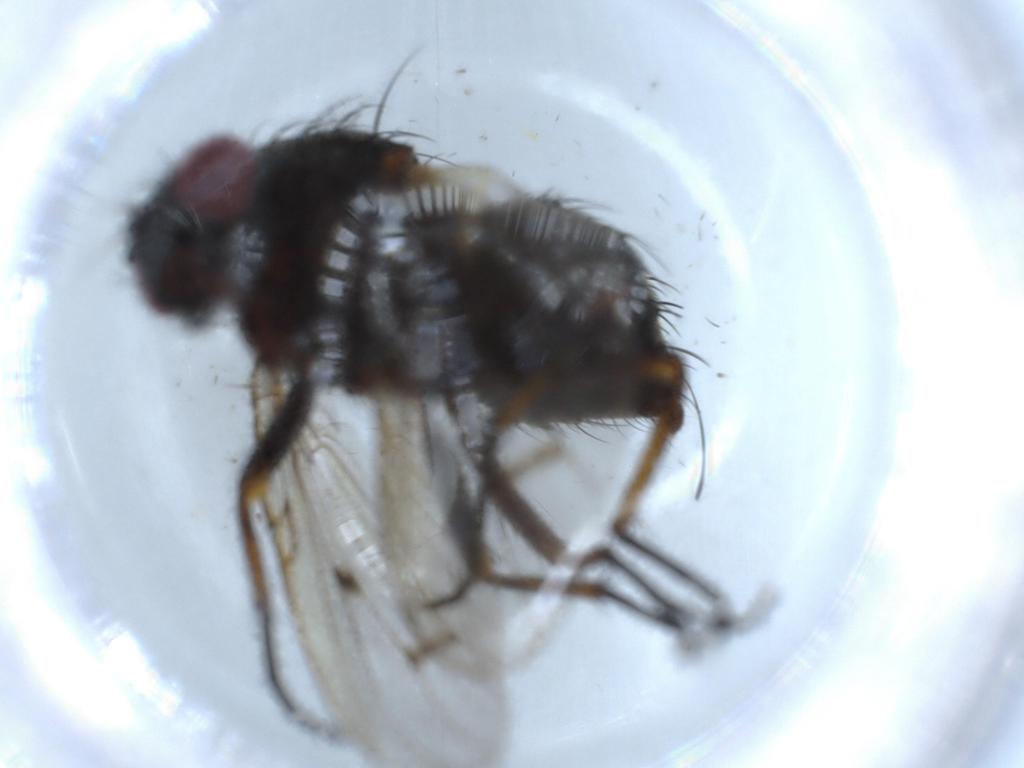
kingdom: Animalia
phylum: Arthropoda
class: Insecta
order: Diptera
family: Muscidae
